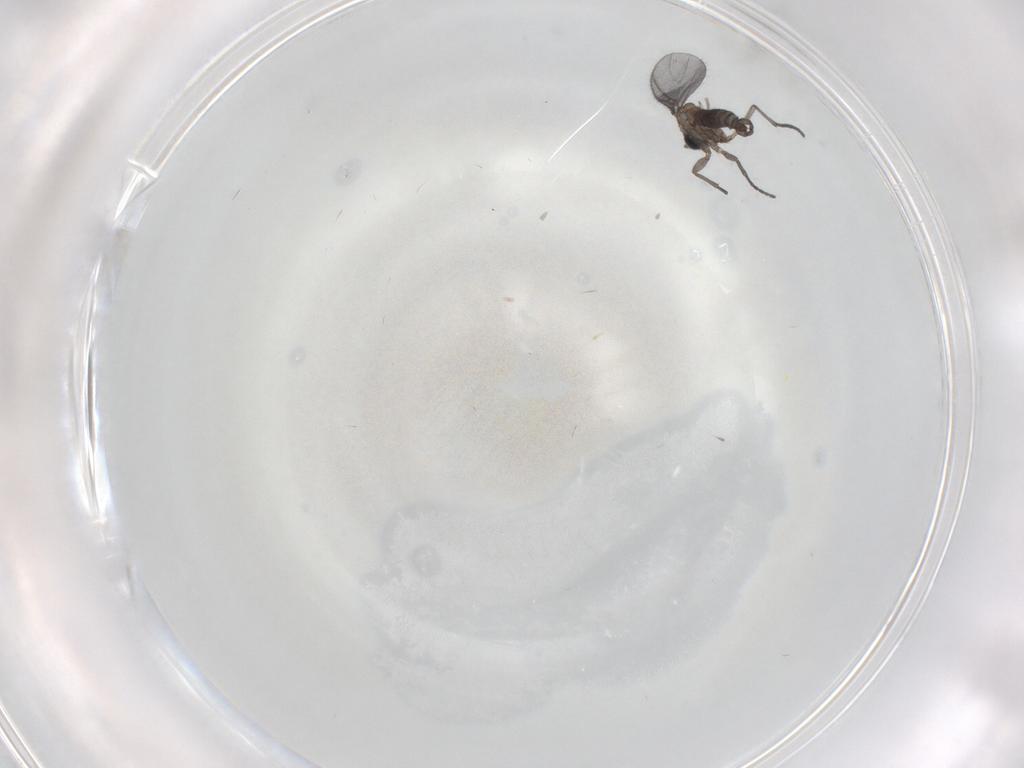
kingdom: Animalia
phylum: Arthropoda
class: Insecta
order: Diptera
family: Sciaridae
